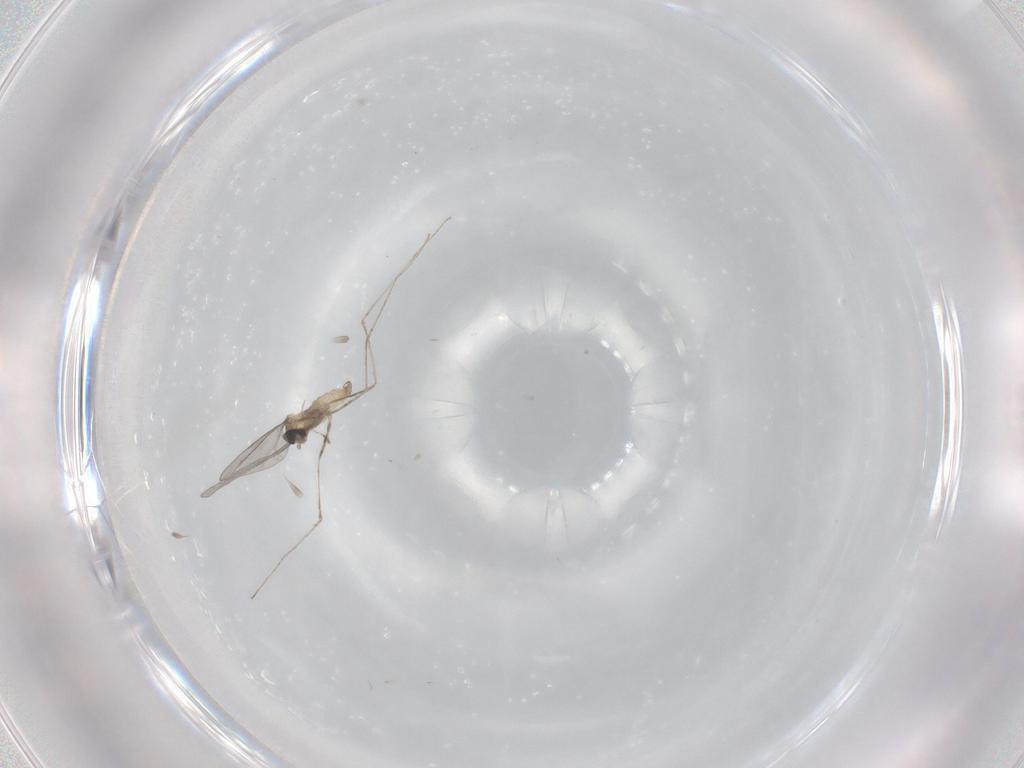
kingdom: Animalia
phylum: Arthropoda
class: Insecta
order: Diptera
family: Cecidomyiidae
